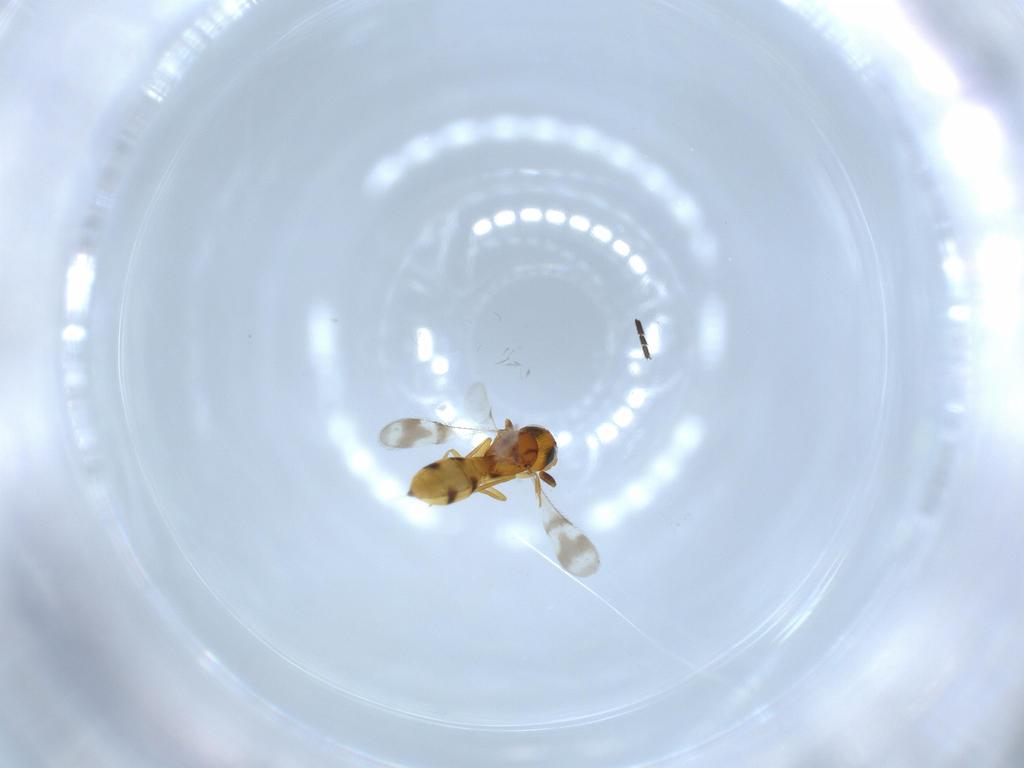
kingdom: Animalia
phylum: Arthropoda
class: Insecta
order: Hymenoptera
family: Scelionidae
